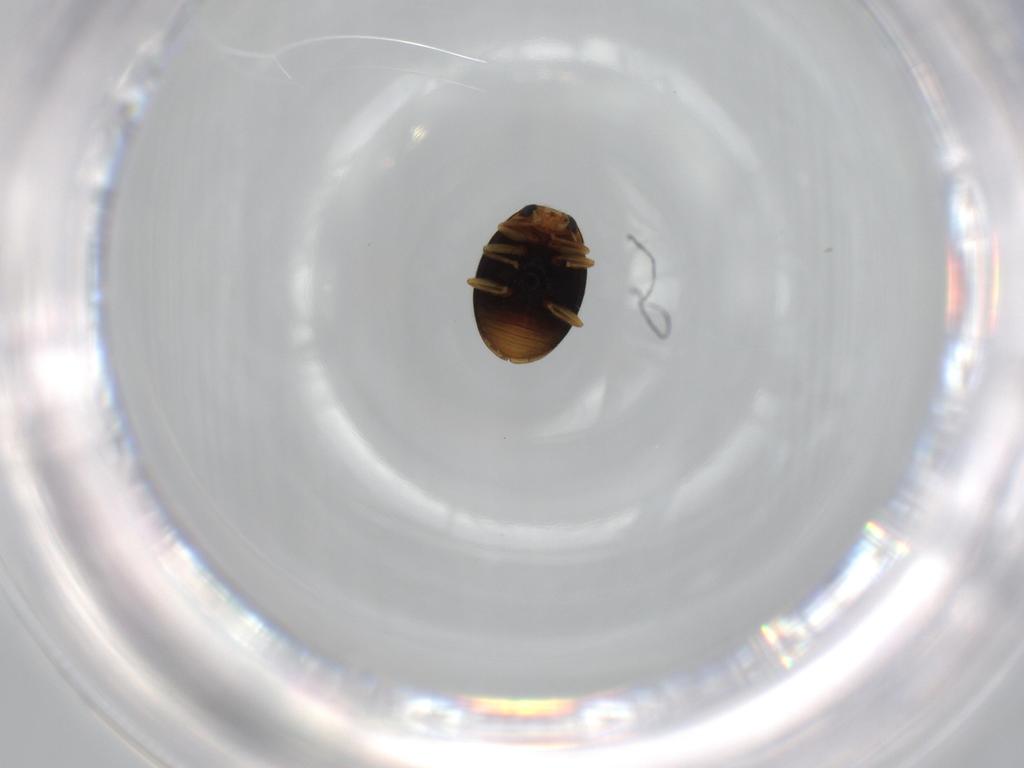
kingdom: Animalia
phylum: Arthropoda
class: Insecta
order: Coleoptera
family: Coccinellidae
